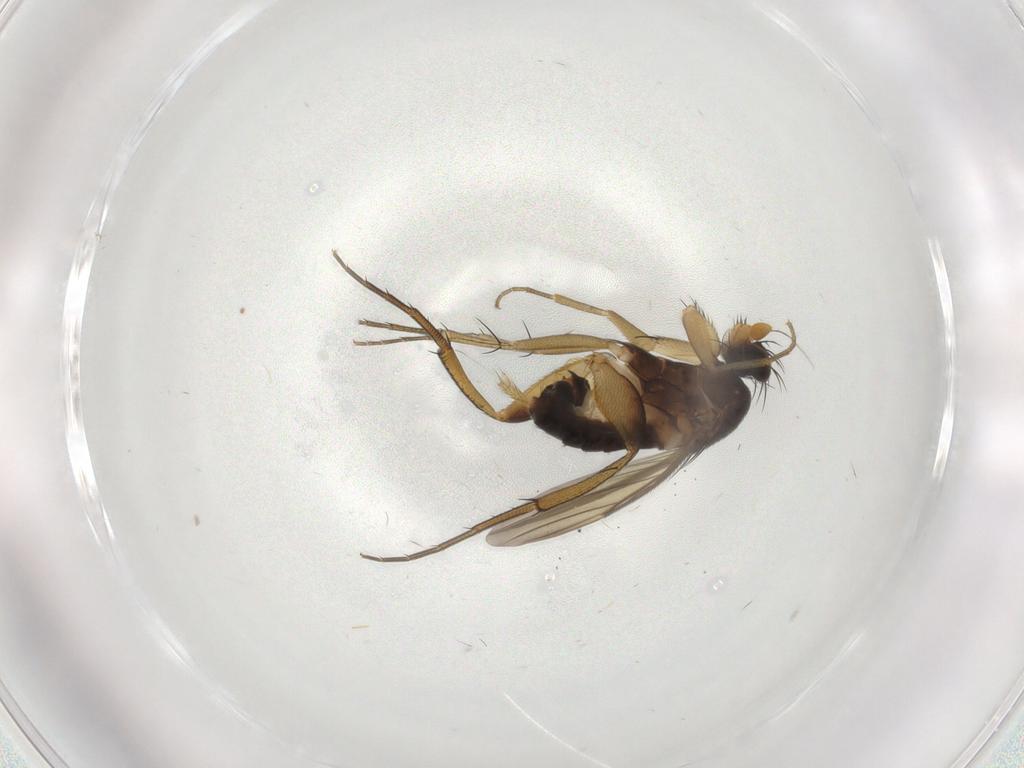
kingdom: Animalia
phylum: Arthropoda
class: Insecta
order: Diptera
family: Phoridae
